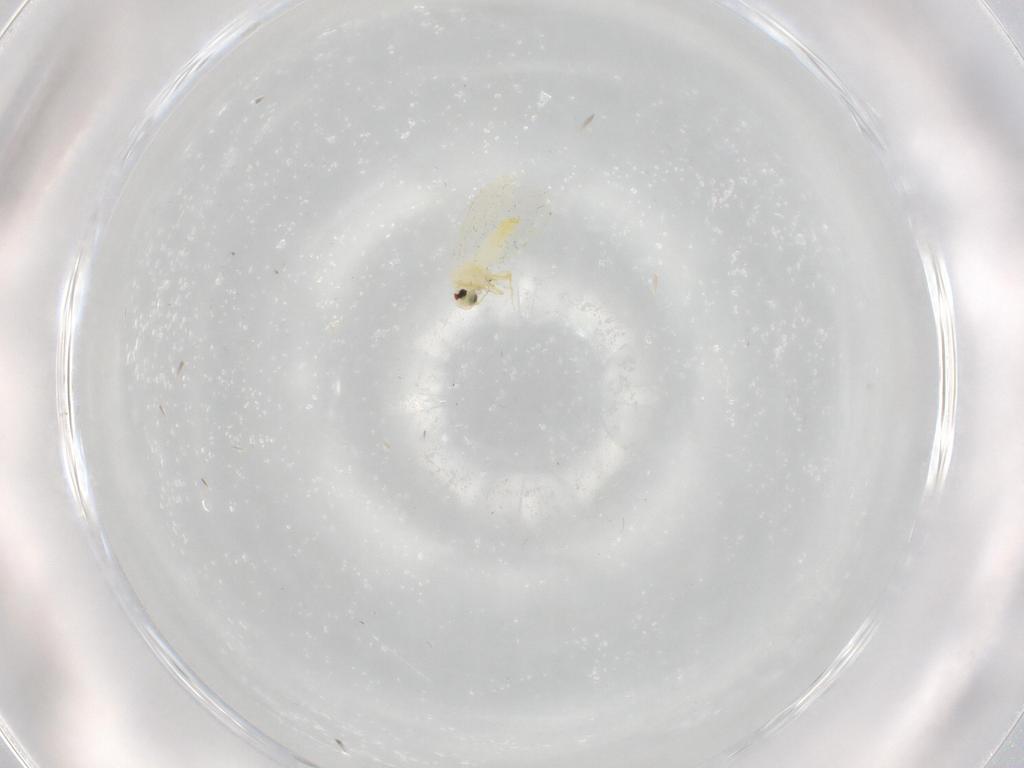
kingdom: Animalia
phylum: Arthropoda
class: Insecta
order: Hemiptera
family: Aleyrodidae
